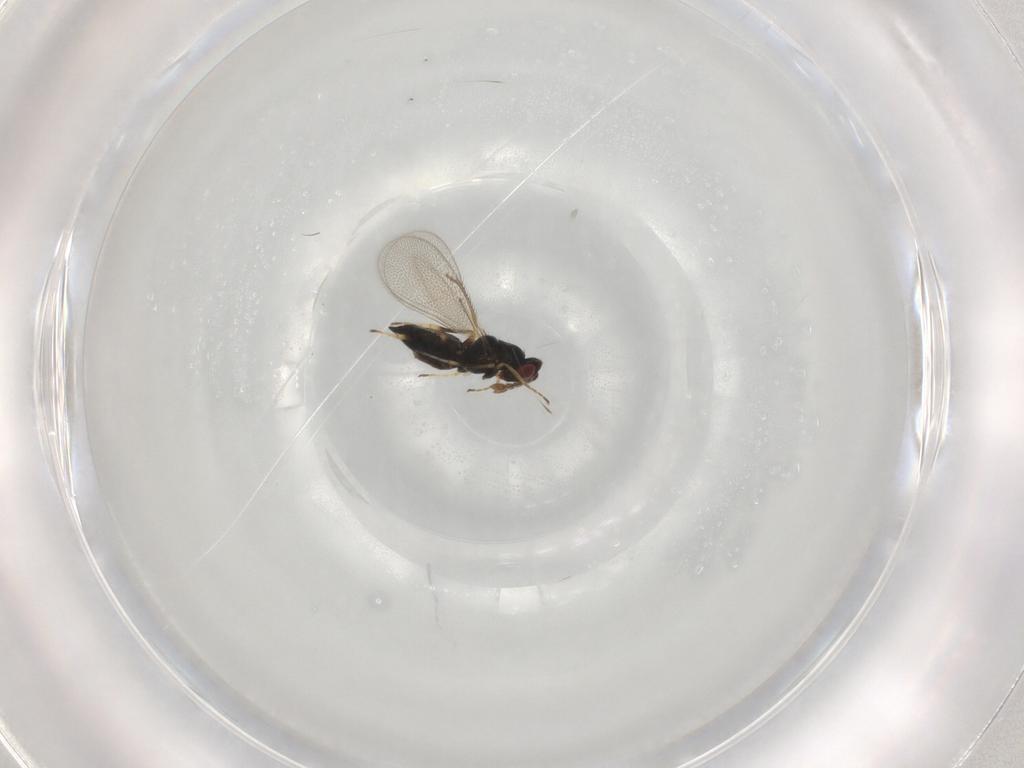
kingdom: Animalia
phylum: Arthropoda
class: Insecta
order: Hymenoptera
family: Eulophidae
